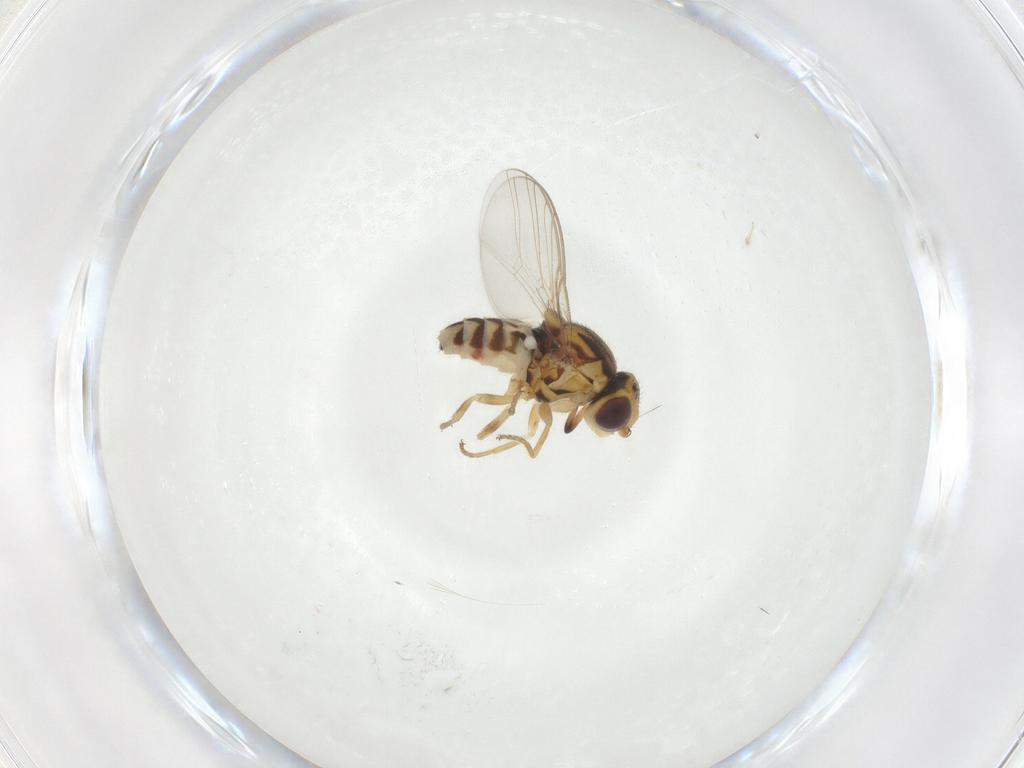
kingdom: Animalia
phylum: Arthropoda
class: Insecta
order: Diptera
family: Chloropidae
